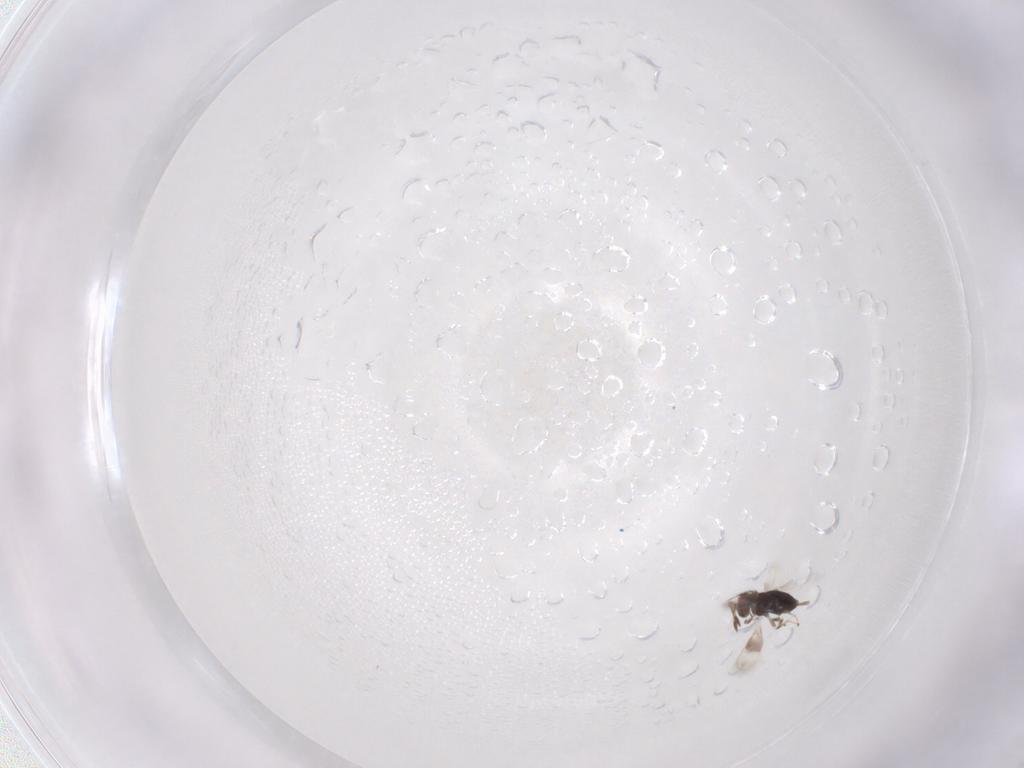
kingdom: Animalia
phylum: Arthropoda
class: Insecta
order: Hymenoptera
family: Azotidae
